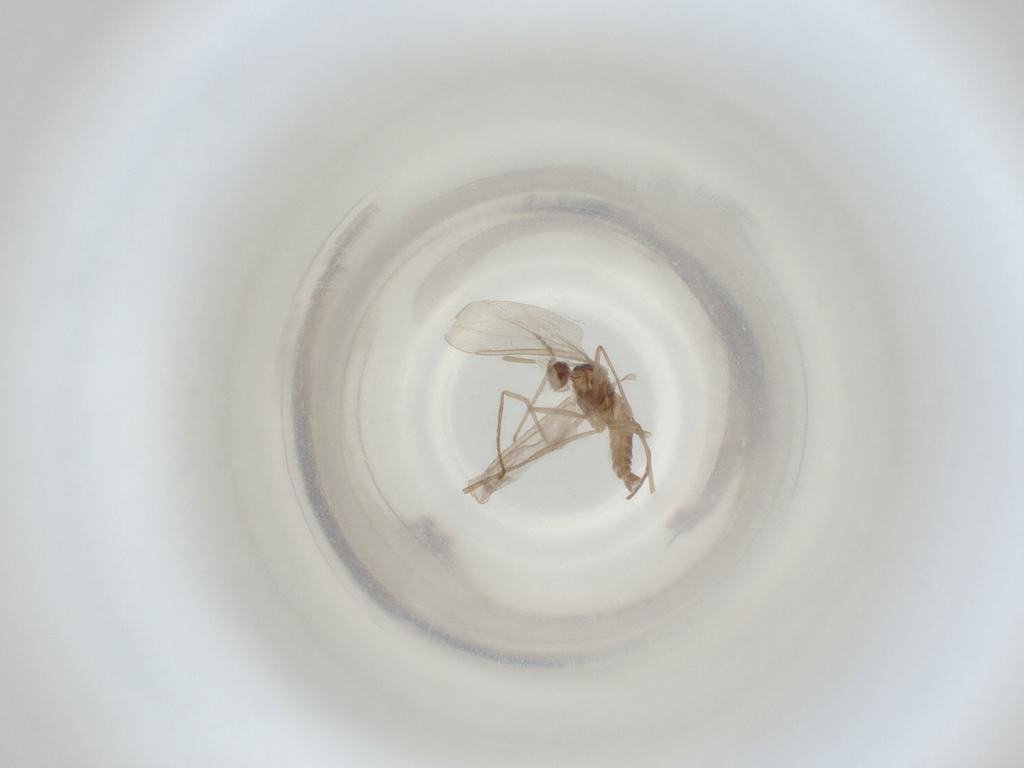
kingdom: Animalia
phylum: Arthropoda
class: Insecta
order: Diptera
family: Cecidomyiidae
